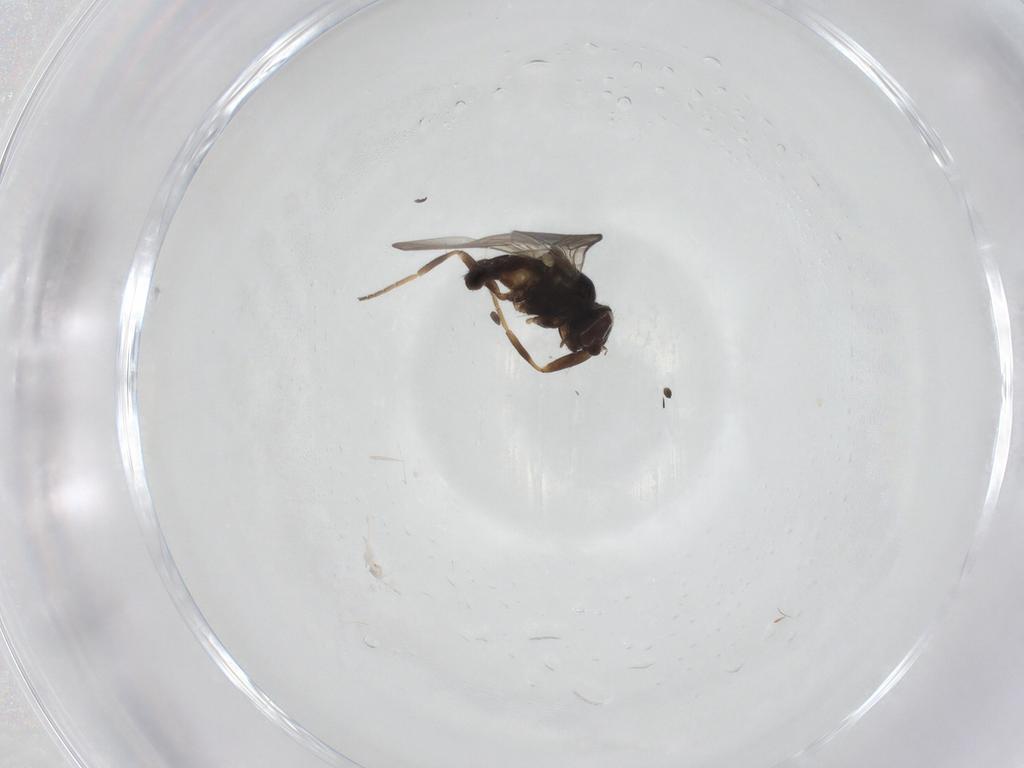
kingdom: Animalia
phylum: Arthropoda
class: Insecta
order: Diptera
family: Chloropidae
